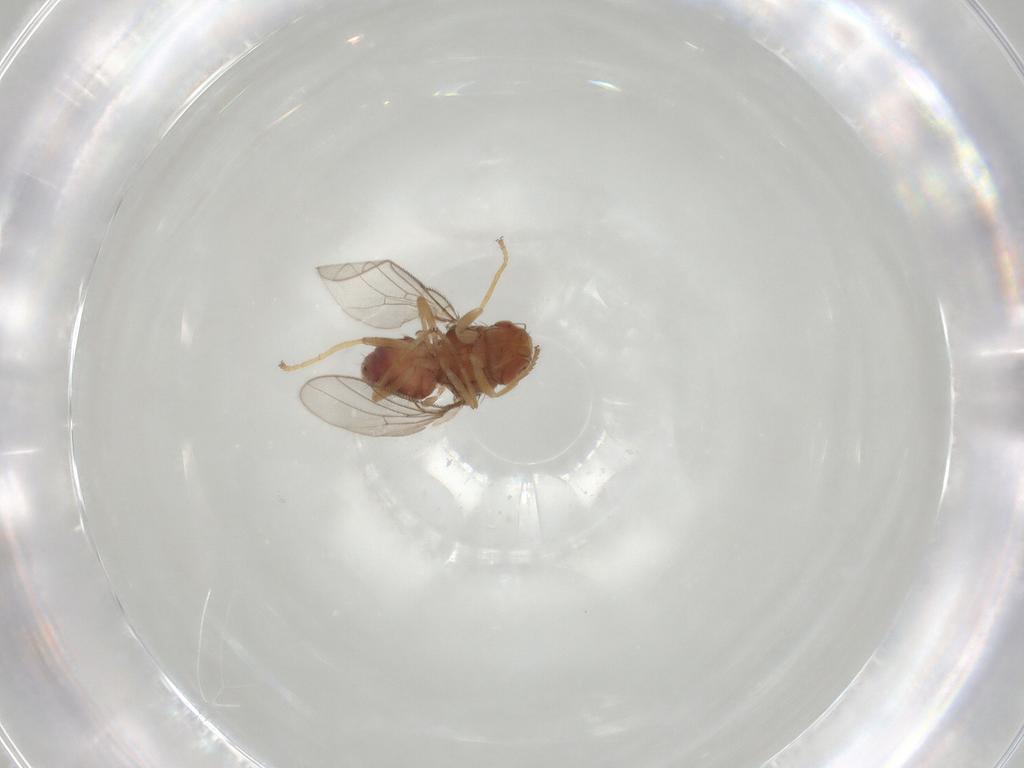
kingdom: Animalia
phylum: Arthropoda
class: Insecta
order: Diptera
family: Chloropidae
